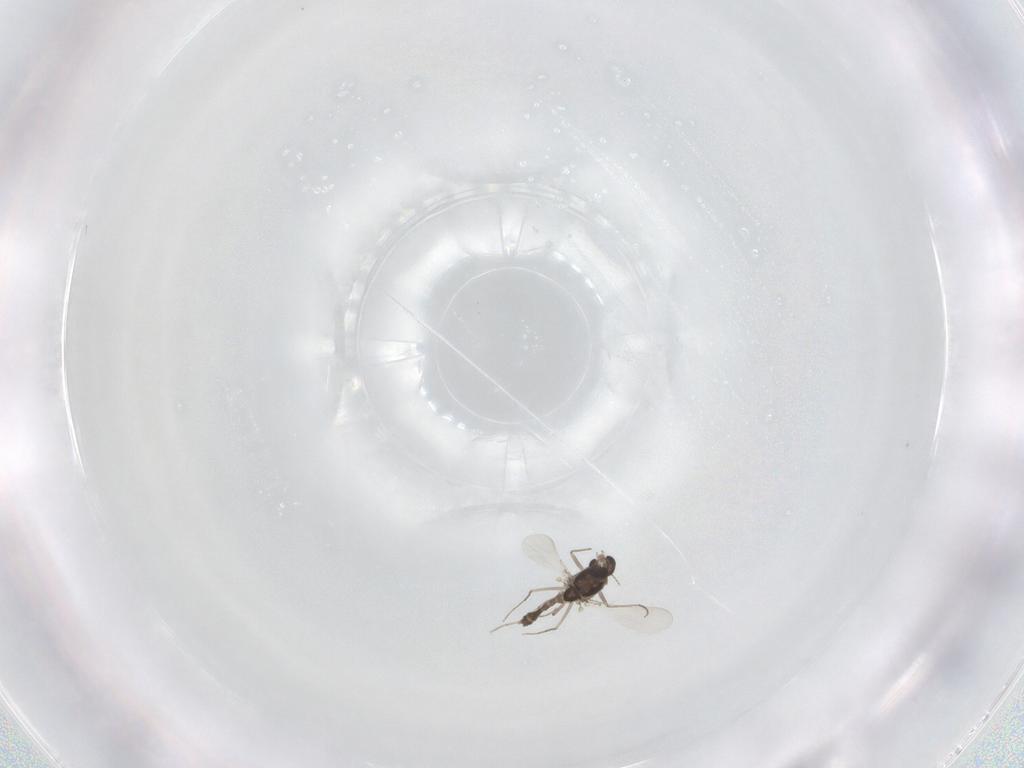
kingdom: Animalia
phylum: Arthropoda
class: Insecta
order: Diptera
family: Chironomidae
